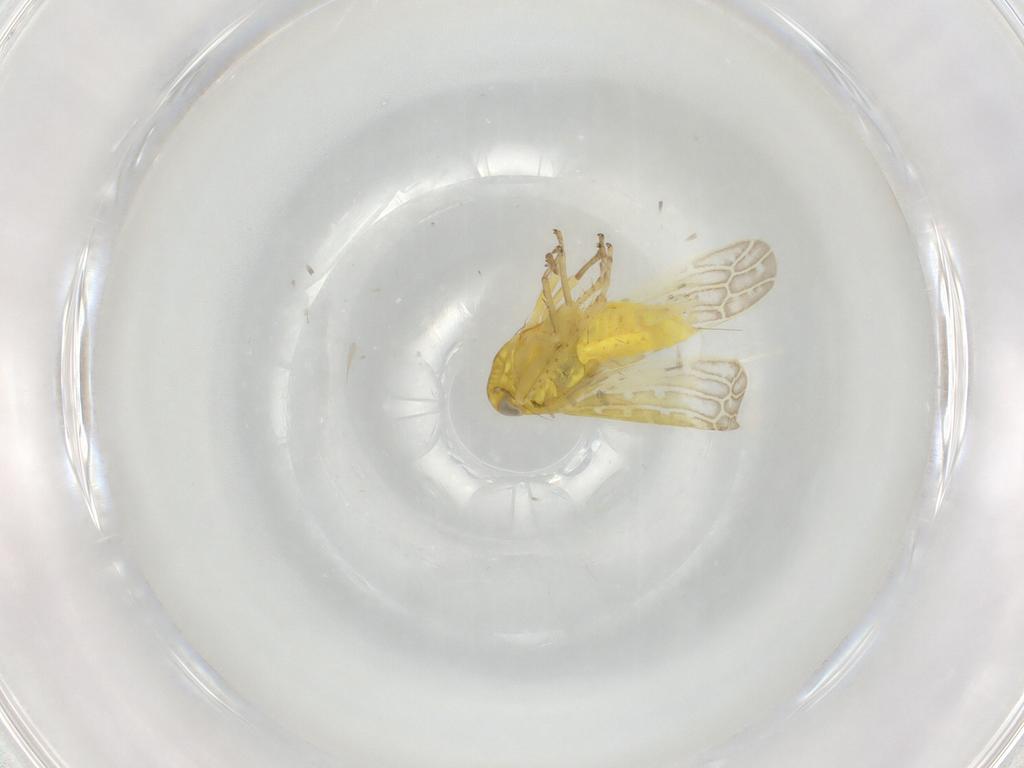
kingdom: Animalia
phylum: Arthropoda
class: Insecta
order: Hemiptera
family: Cicadellidae
